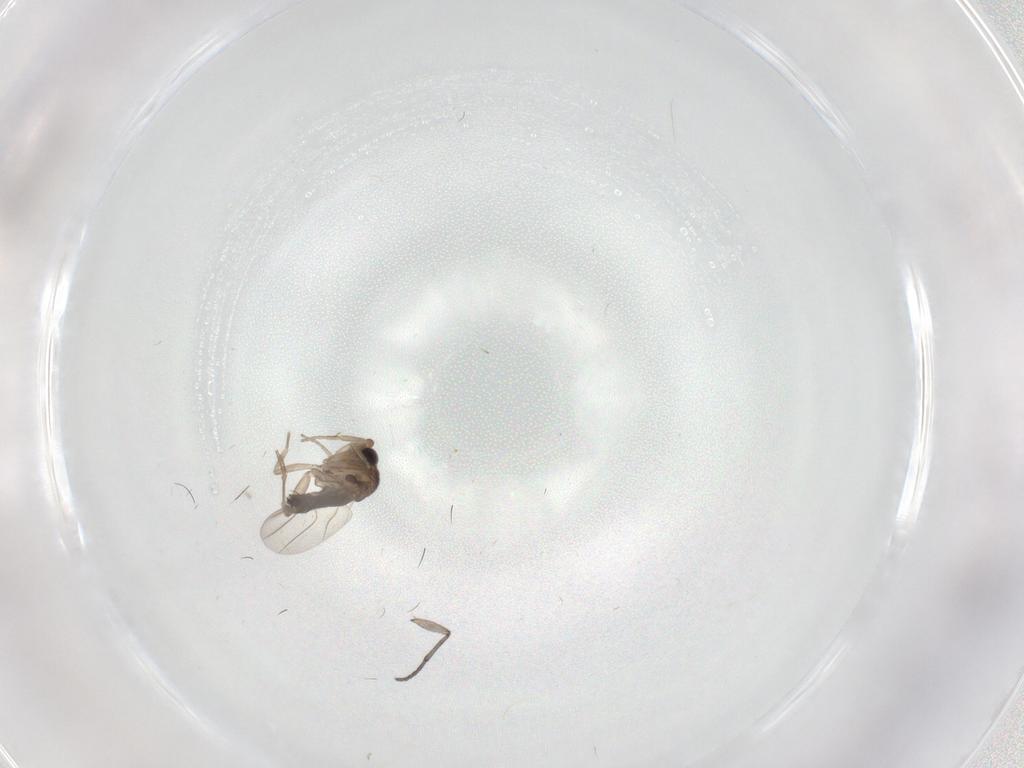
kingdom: Animalia
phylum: Arthropoda
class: Insecta
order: Diptera
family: Phoridae
